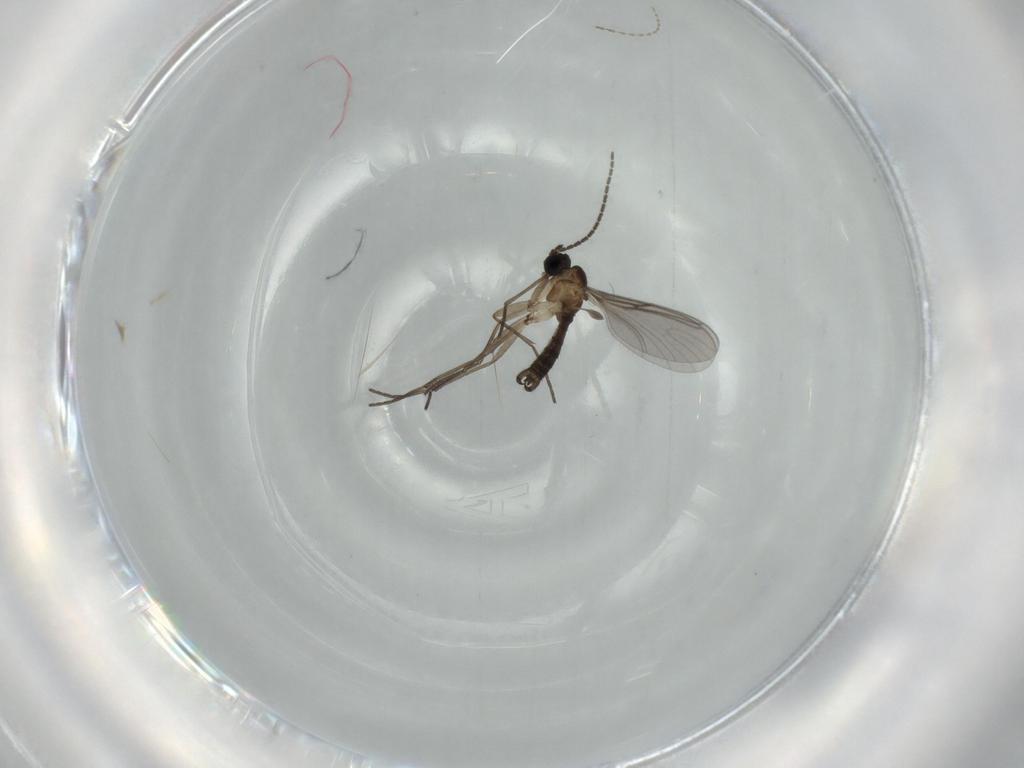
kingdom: Animalia
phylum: Arthropoda
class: Insecta
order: Diptera
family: Sciaridae
